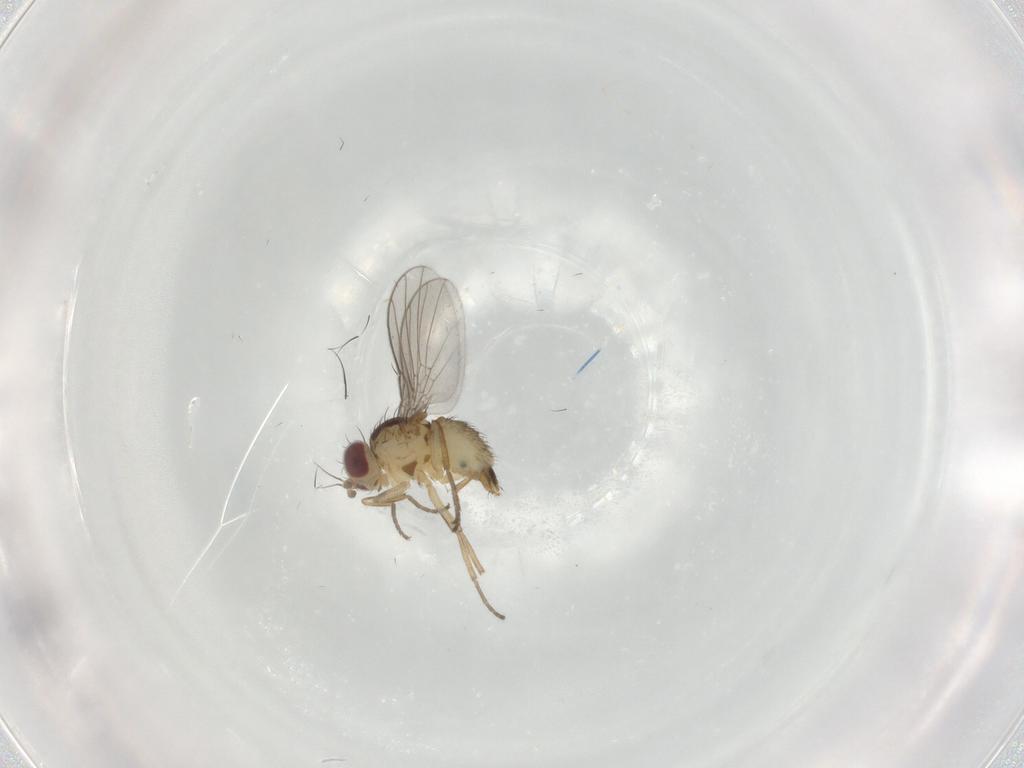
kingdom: Animalia
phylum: Arthropoda
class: Insecta
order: Diptera
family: Agromyzidae
